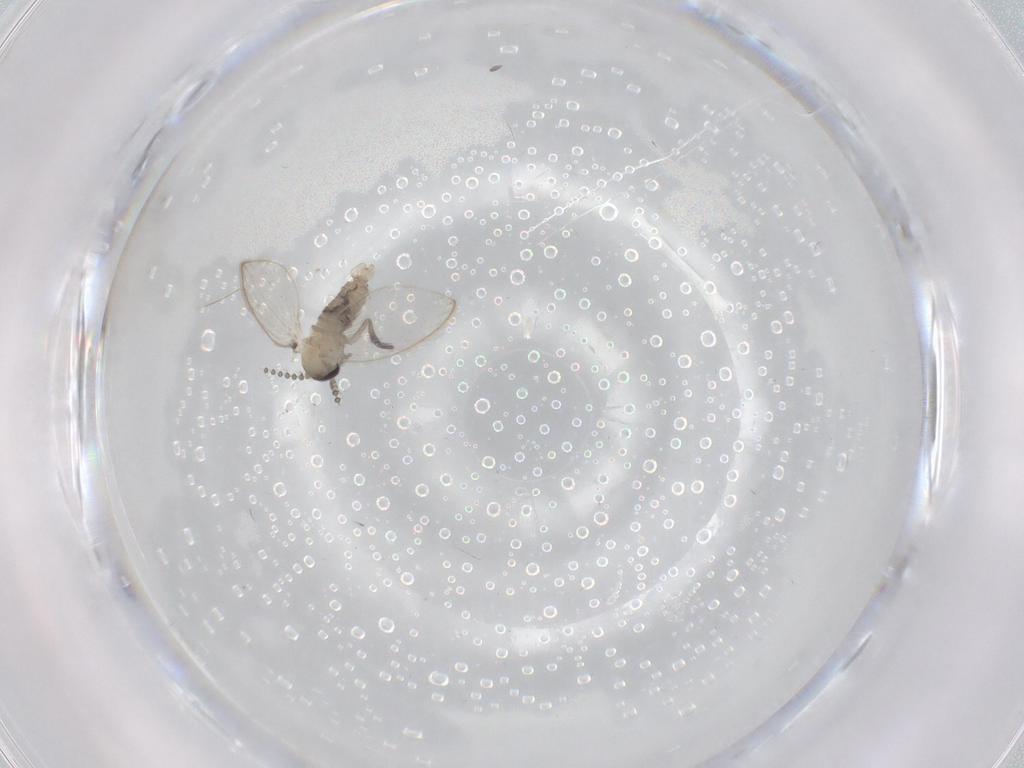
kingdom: Animalia
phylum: Arthropoda
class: Insecta
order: Diptera
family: Psychodidae
